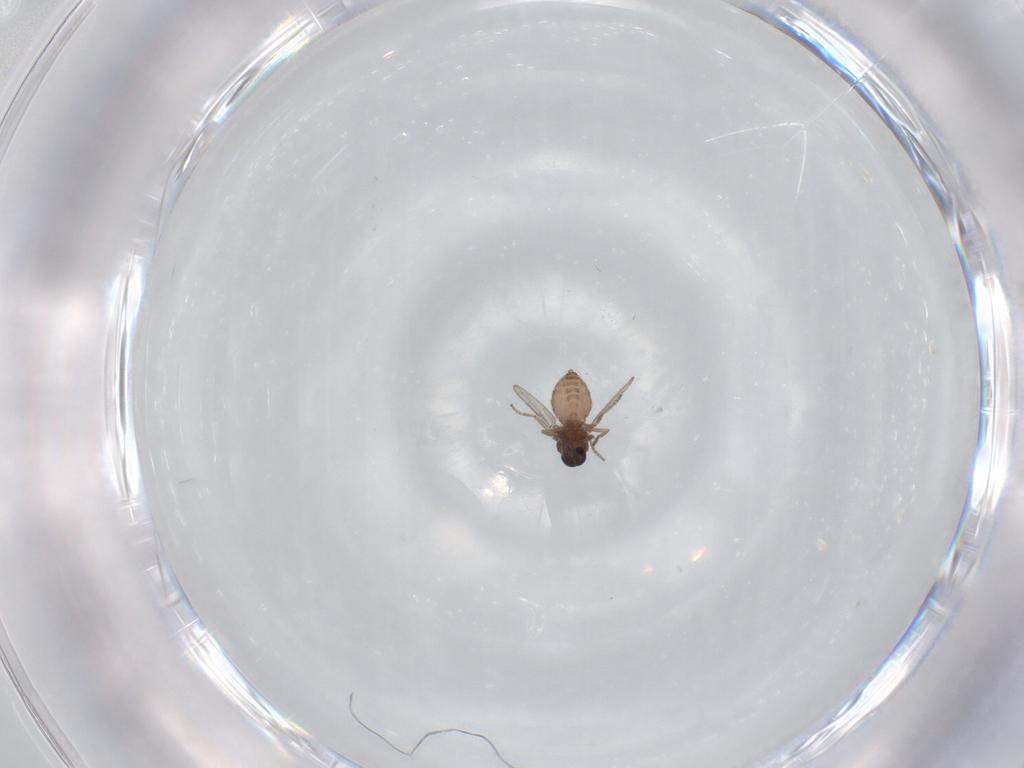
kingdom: Animalia
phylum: Arthropoda
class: Insecta
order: Diptera
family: Ceratopogonidae
